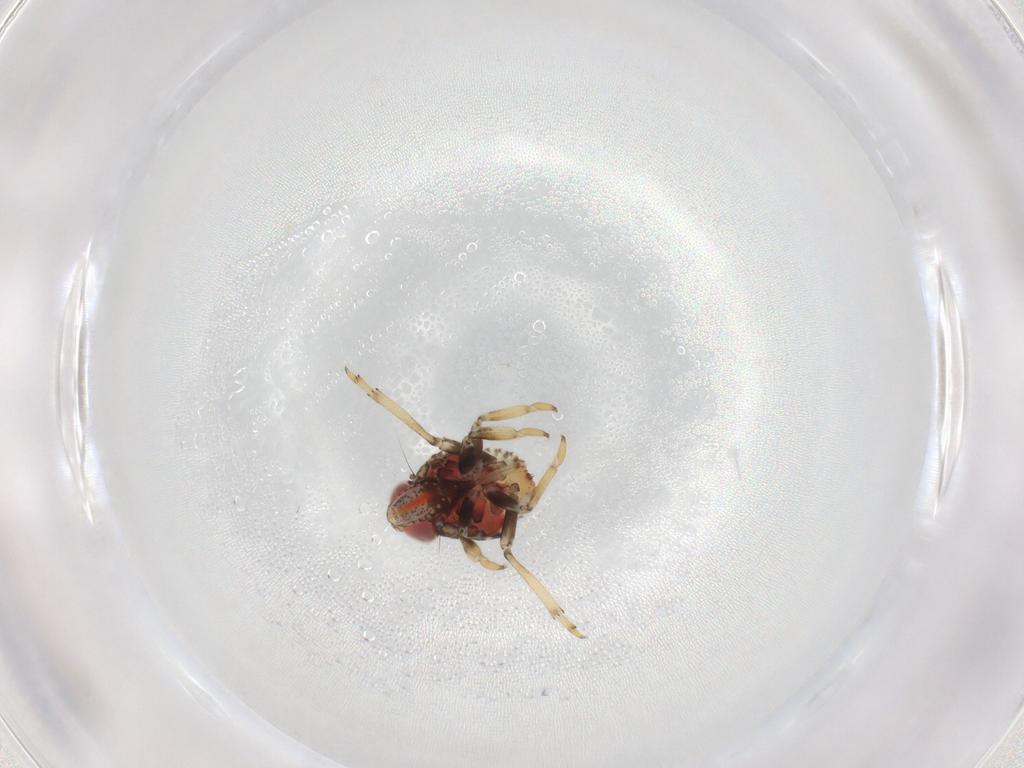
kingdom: Animalia
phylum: Arthropoda
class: Insecta
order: Hemiptera
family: Issidae
